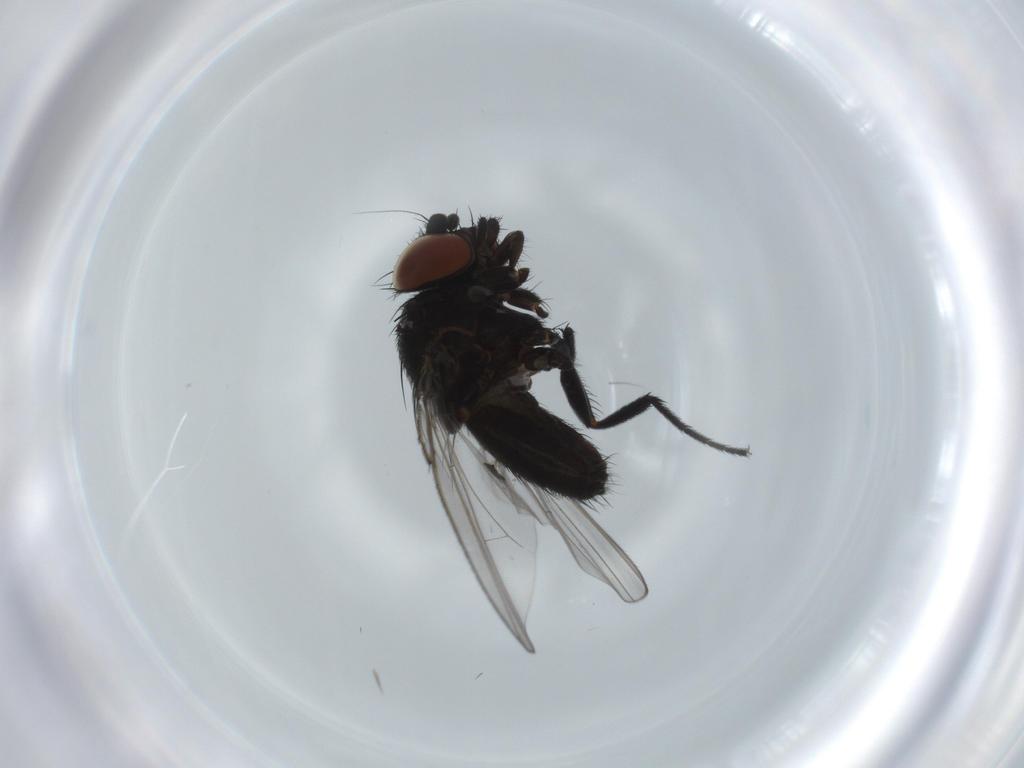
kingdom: Animalia
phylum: Arthropoda
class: Insecta
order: Diptera
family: Milichiidae
